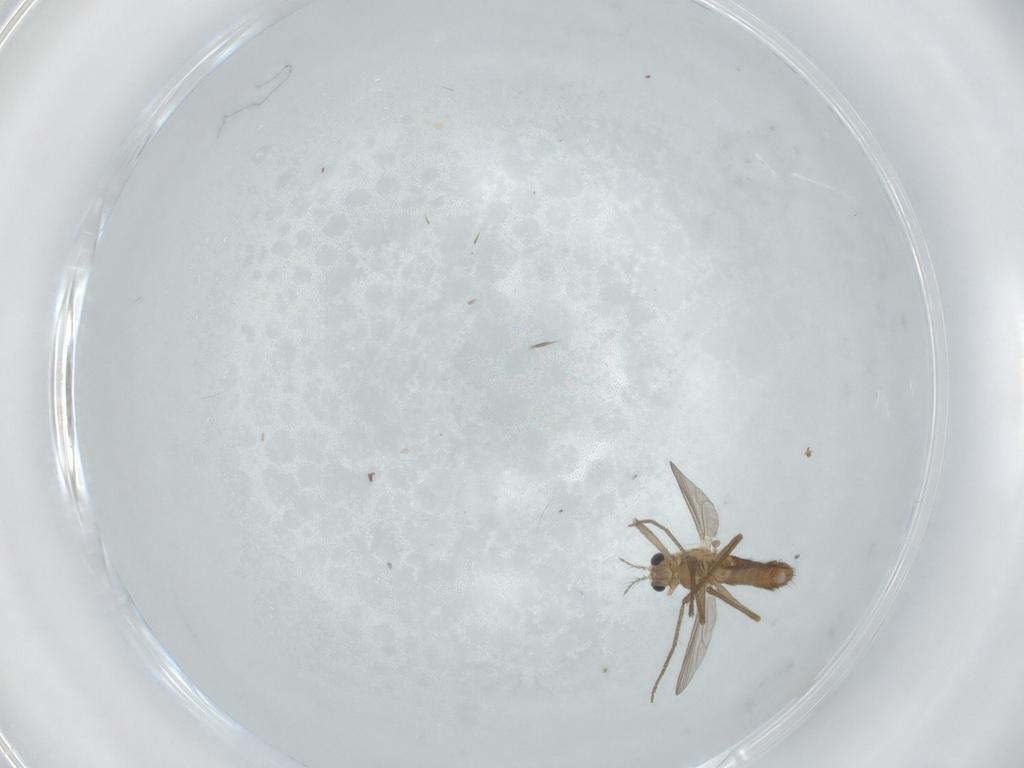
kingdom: Animalia
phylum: Arthropoda
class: Insecta
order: Diptera
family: Chironomidae
